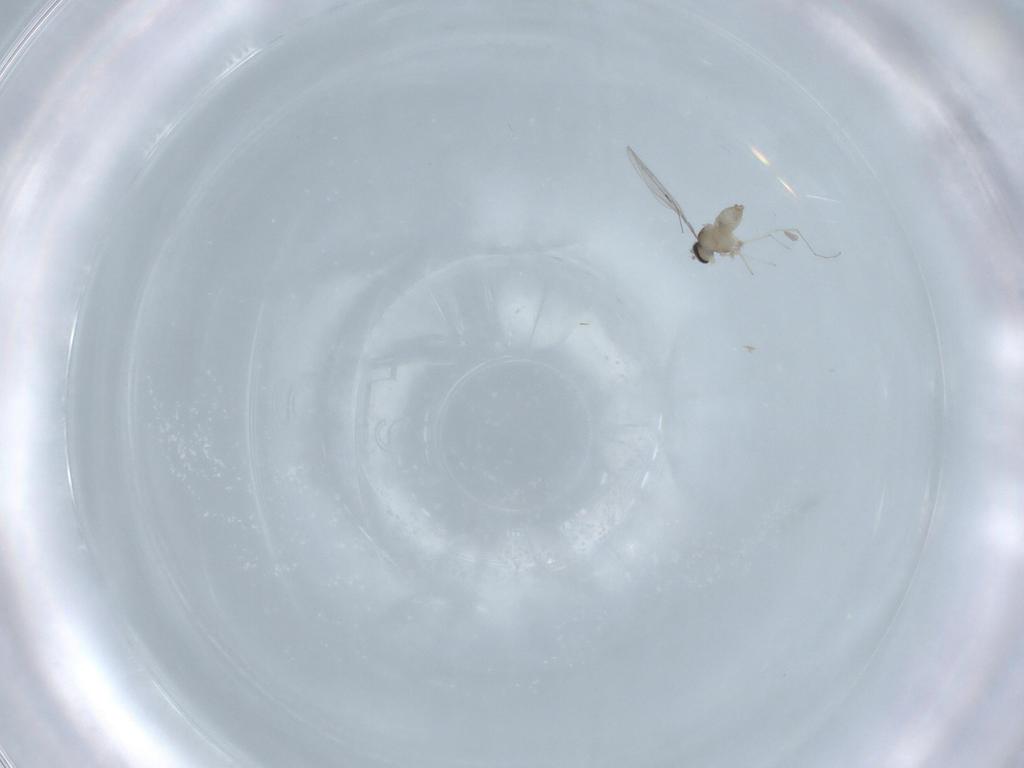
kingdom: Animalia
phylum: Arthropoda
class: Insecta
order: Diptera
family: Cecidomyiidae
